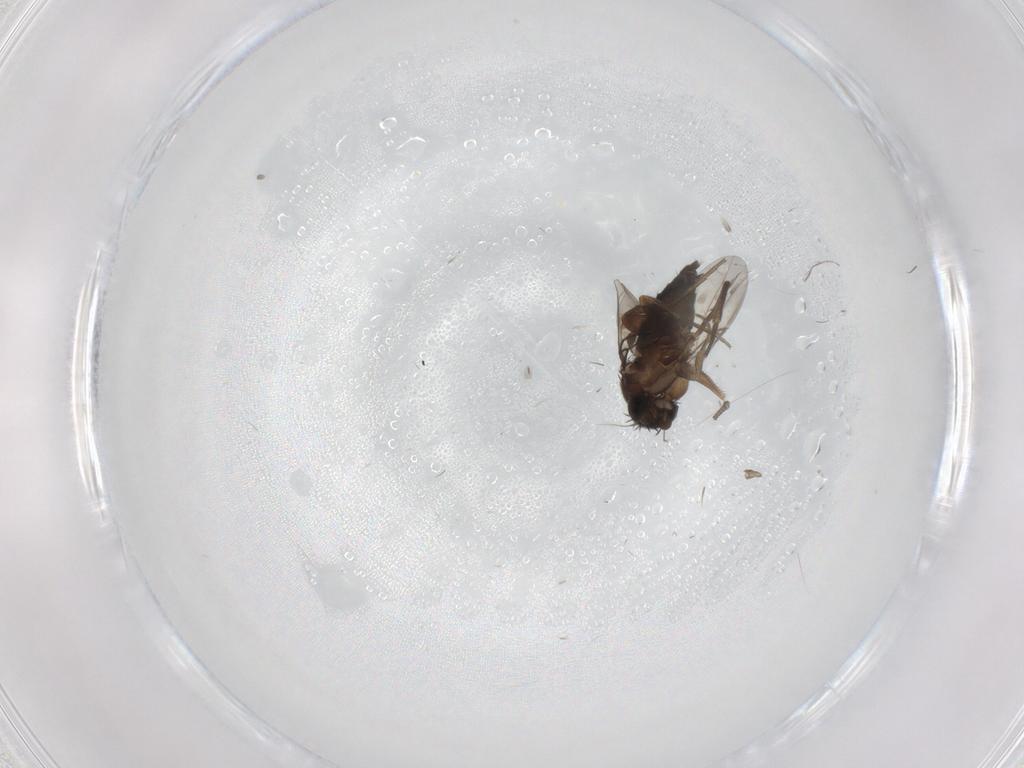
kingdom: Animalia
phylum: Arthropoda
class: Insecta
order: Diptera
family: Phoridae
